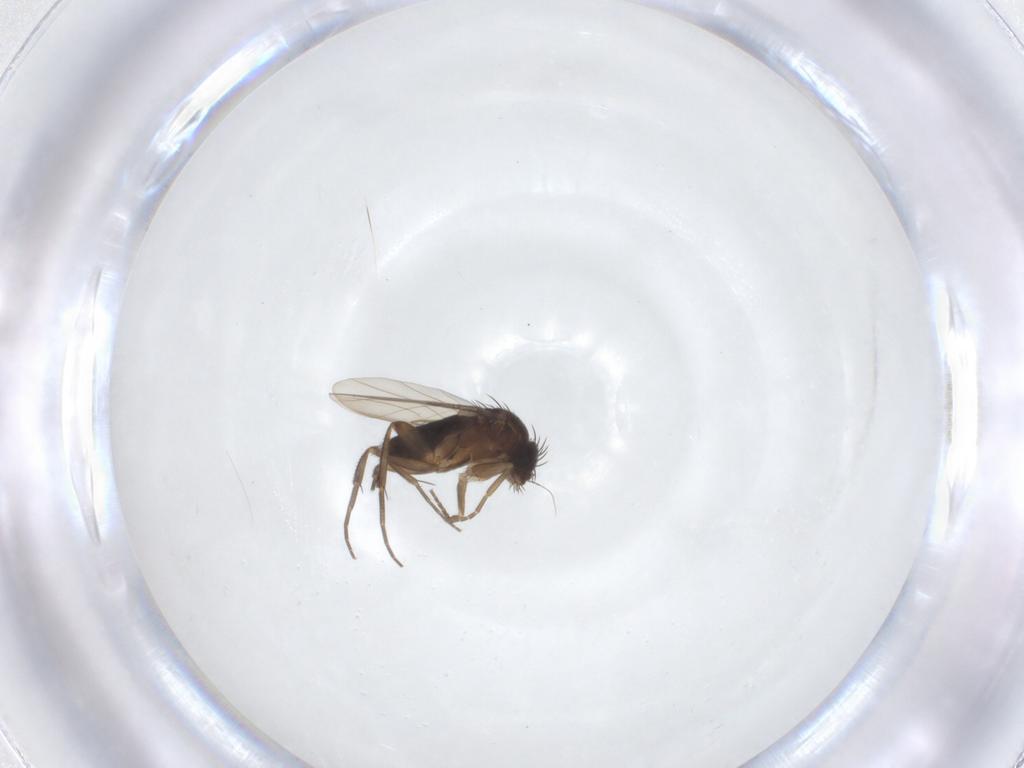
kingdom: Animalia
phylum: Arthropoda
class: Insecta
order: Diptera
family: Phoridae
